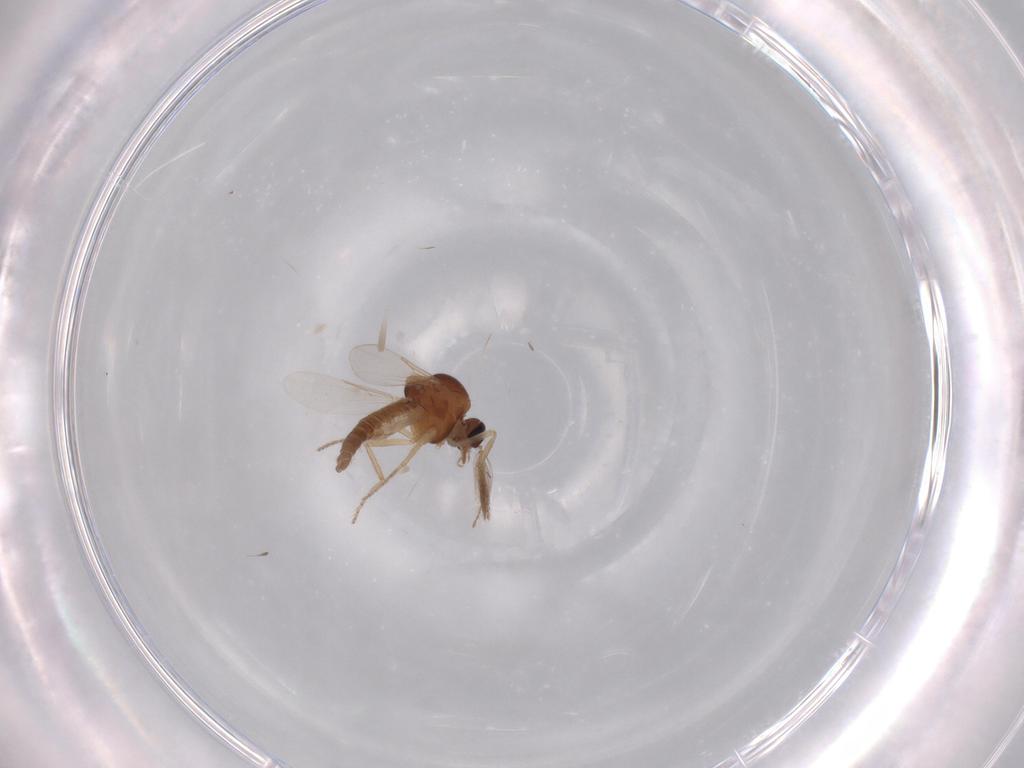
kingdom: Animalia
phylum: Arthropoda
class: Insecta
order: Diptera
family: Ceratopogonidae
